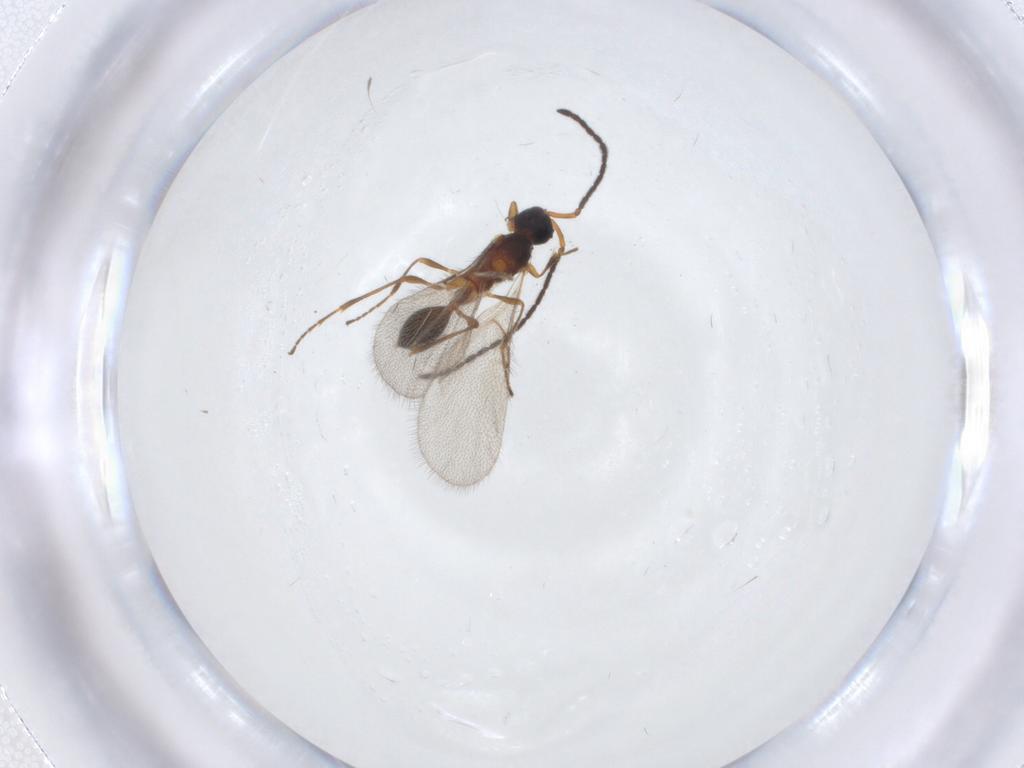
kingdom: Animalia
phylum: Arthropoda
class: Insecta
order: Hymenoptera
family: Diapriidae
